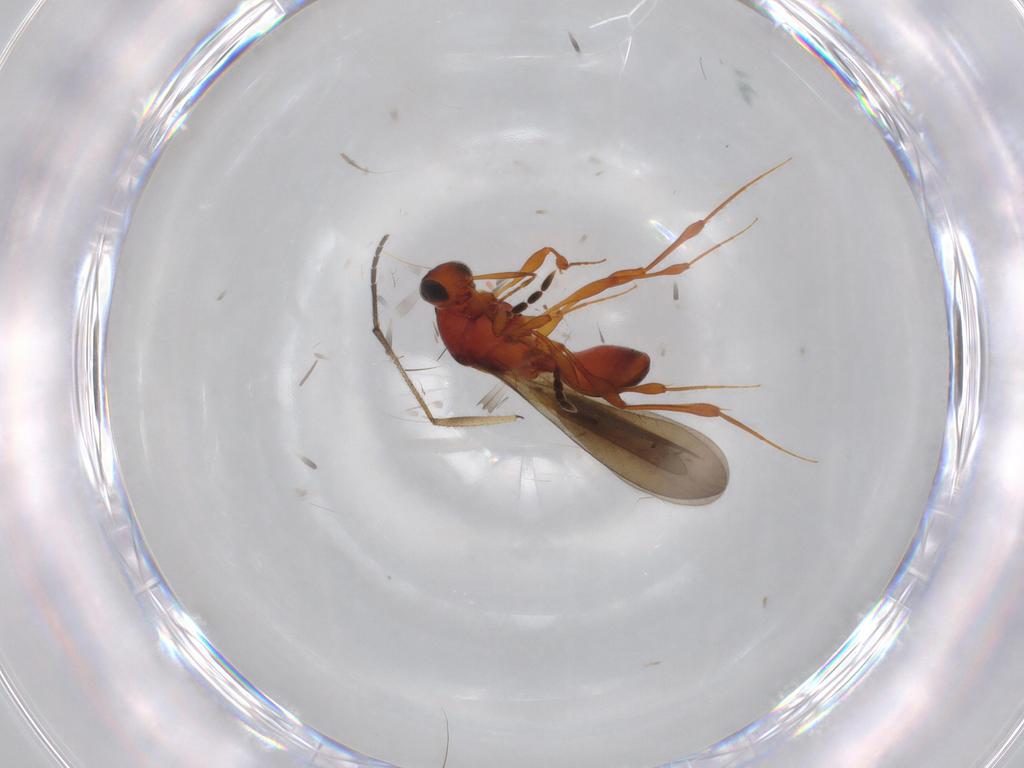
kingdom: Animalia
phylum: Arthropoda
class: Insecta
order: Hymenoptera
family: Platygastridae
